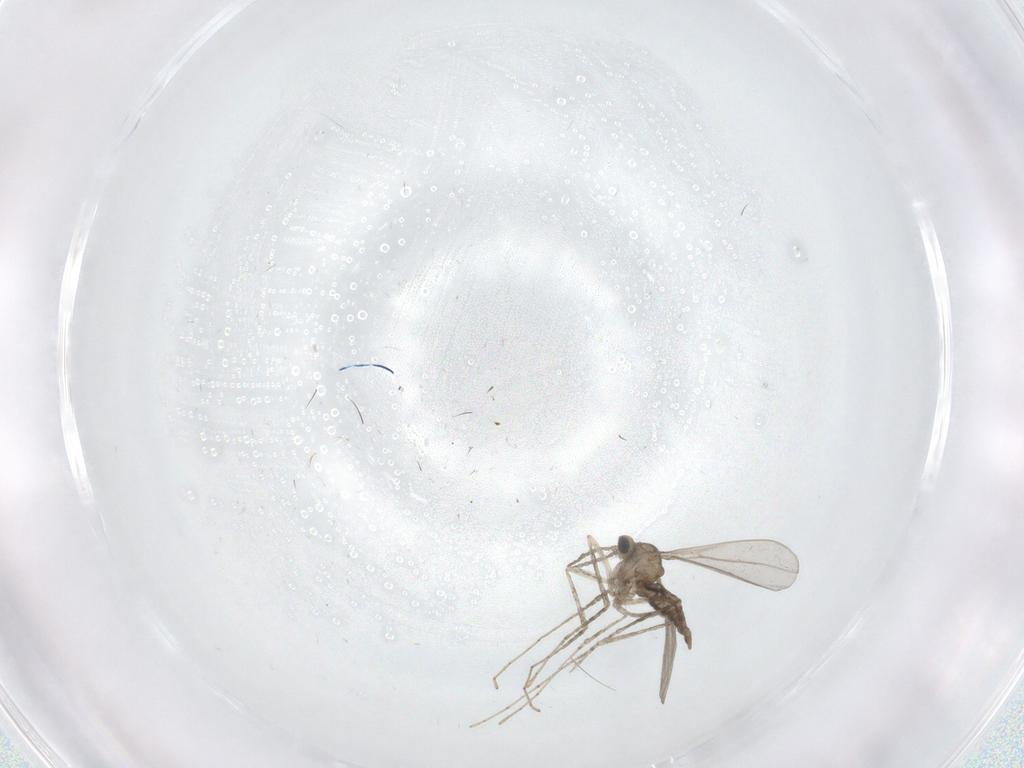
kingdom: Animalia
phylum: Arthropoda
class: Insecta
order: Diptera
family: Cecidomyiidae
